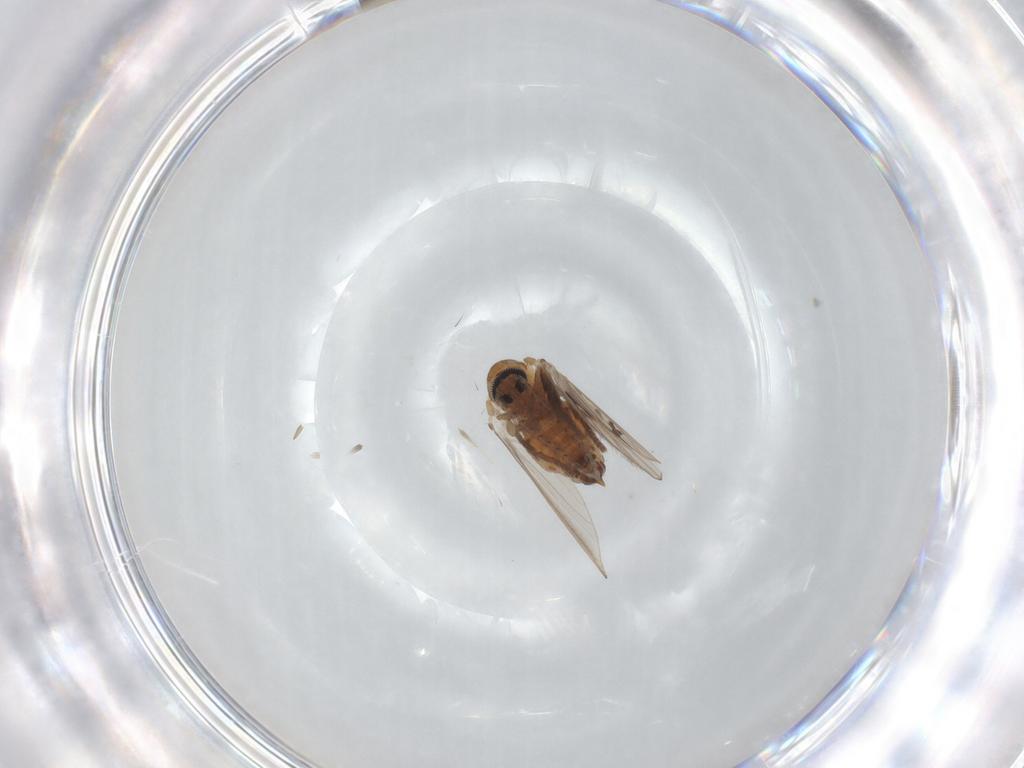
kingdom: Animalia
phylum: Arthropoda
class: Insecta
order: Diptera
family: Psychodidae
